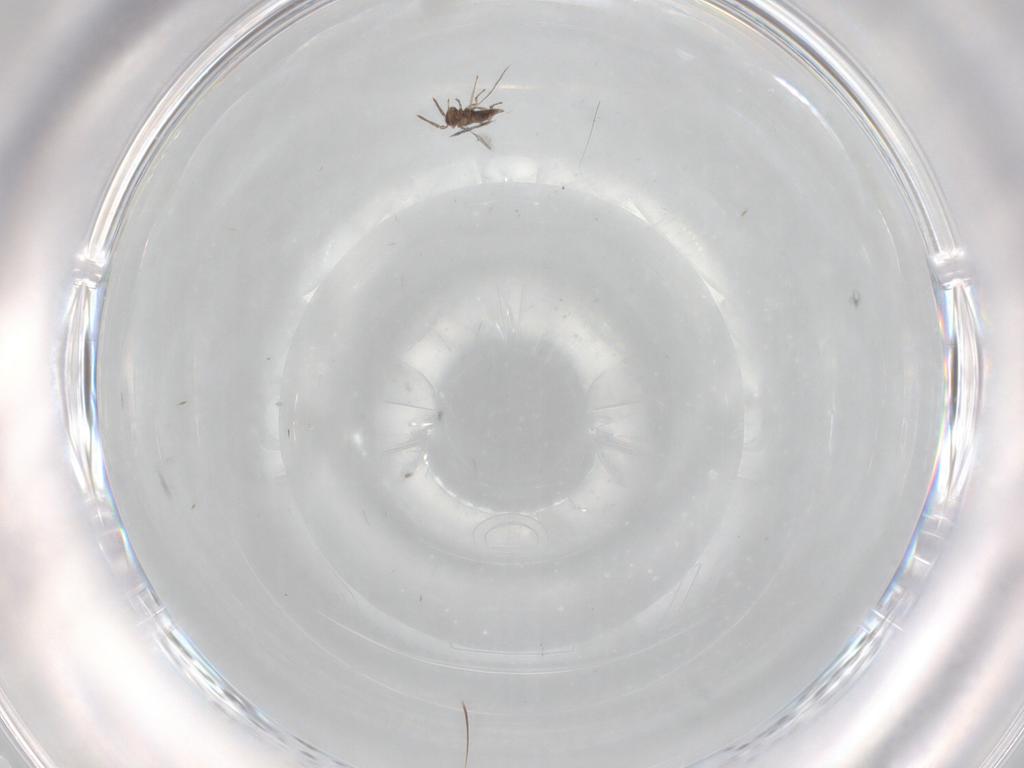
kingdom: Animalia
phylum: Arthropoda
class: Insecta
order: Diptera
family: Ceratopogonidae
